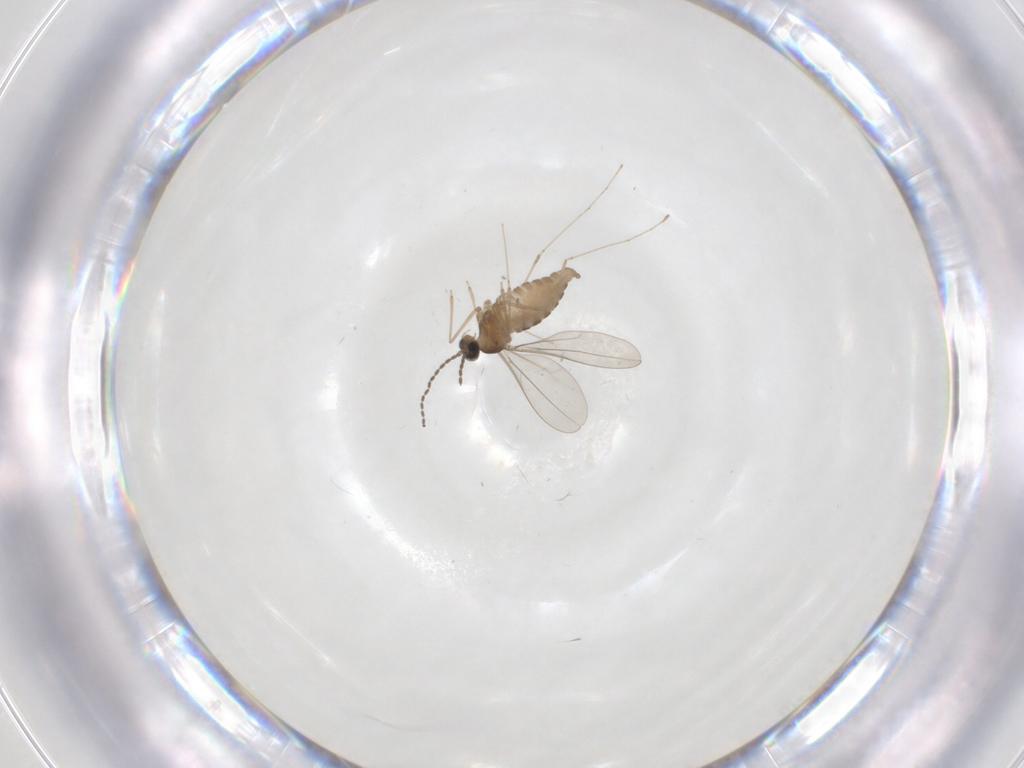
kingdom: Animalia
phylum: Arthropoda
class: Insecta
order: Diptera
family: Cecidomyiidae
